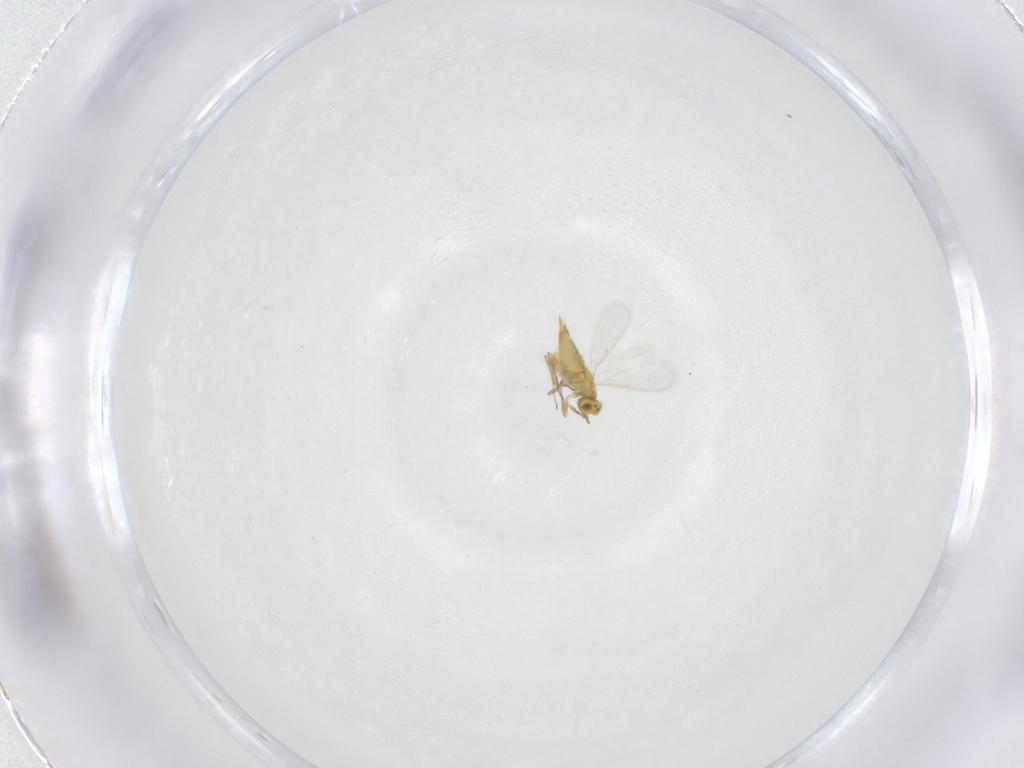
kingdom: Animalia
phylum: Arthropoda
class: Insecta
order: Hymenoptera
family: Aphelinidae
